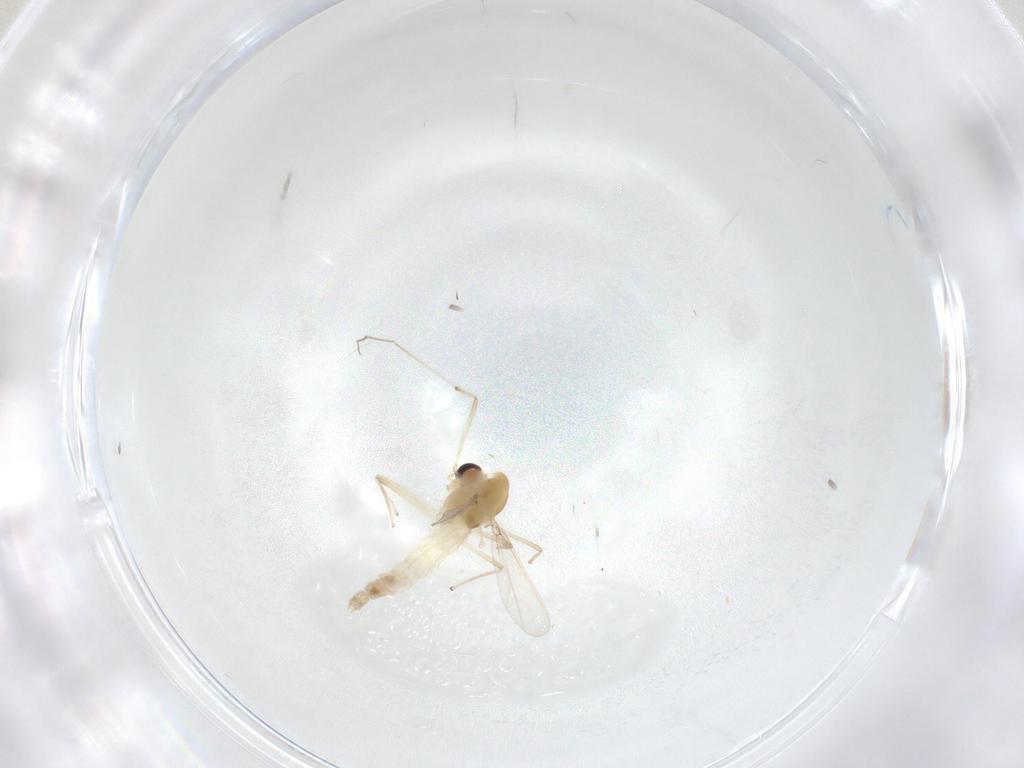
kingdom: Animalia
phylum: Arthropoda
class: Insecta
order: Diptera
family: Chironomidae
